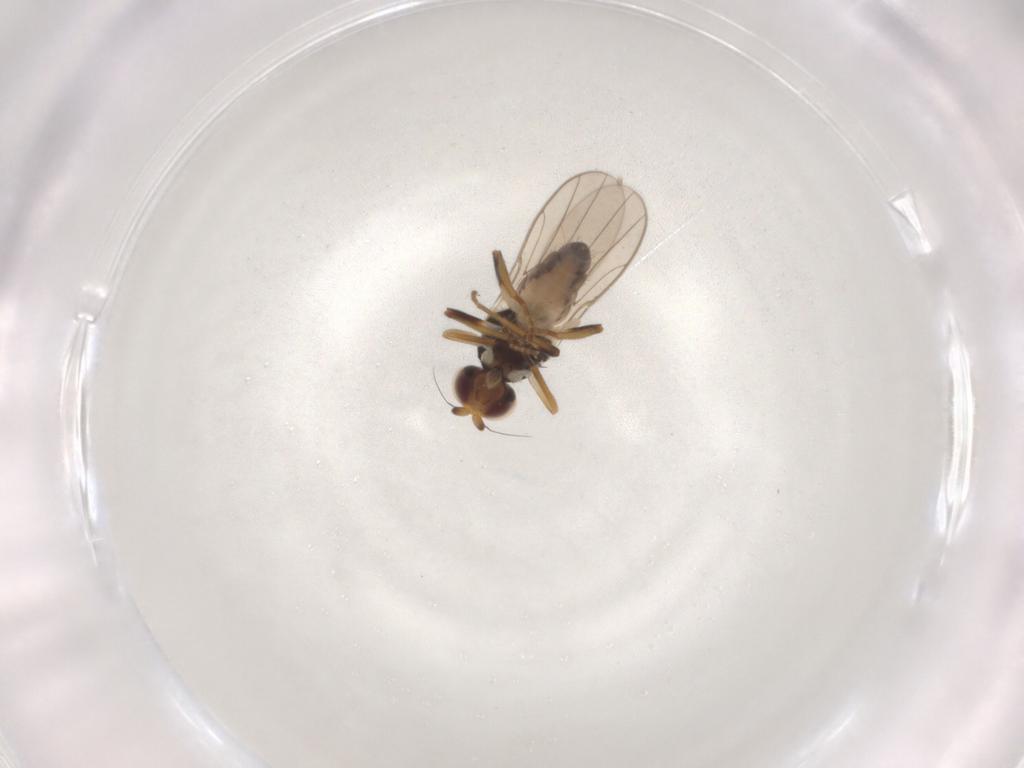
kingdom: Animalia
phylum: Arthropoda
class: Insecta
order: Diptera
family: Chloropidae
